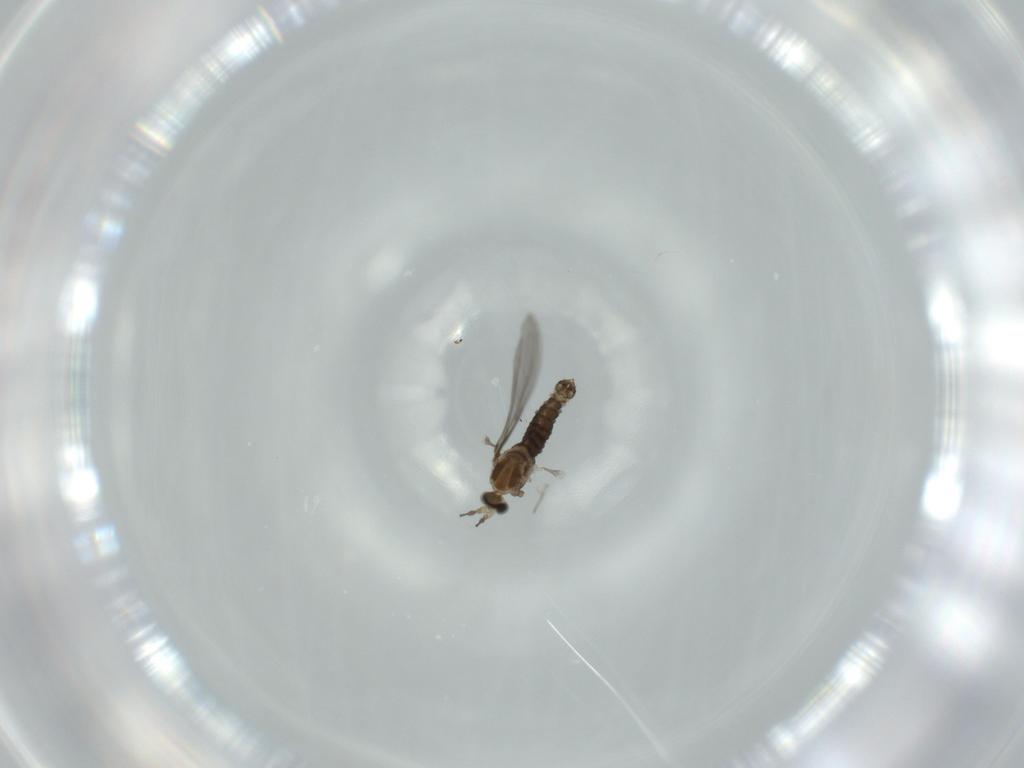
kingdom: Animalia
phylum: Arthropoda
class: Insecta
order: Diptera
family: Cecidomyiidae
